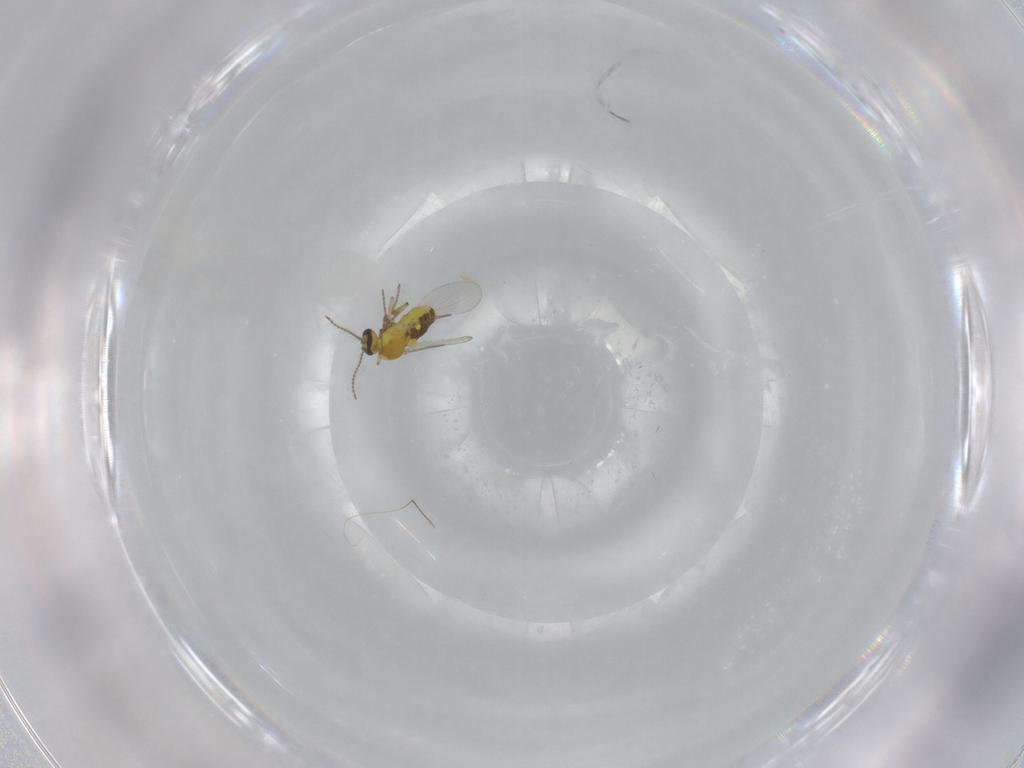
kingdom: Animalia
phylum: Arthropoda
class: Insecta
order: Diptera
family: Ceratopogonidae
